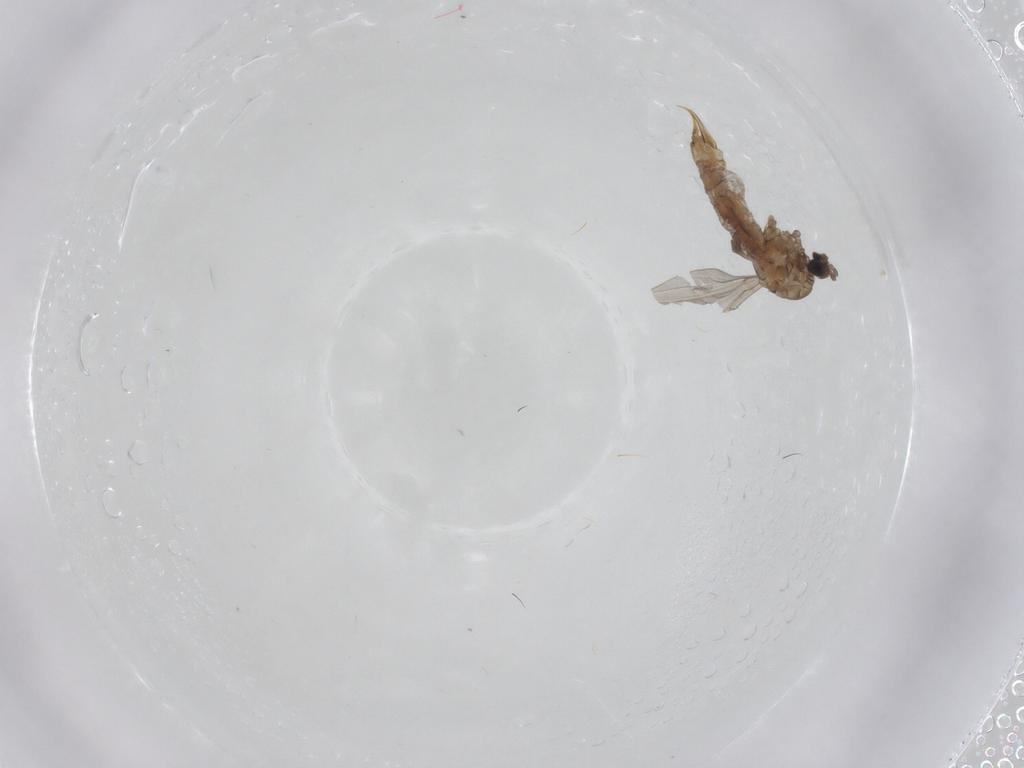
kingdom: Animalia
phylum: Arthropoda
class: Insecta
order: Diptera
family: Limoniidae
